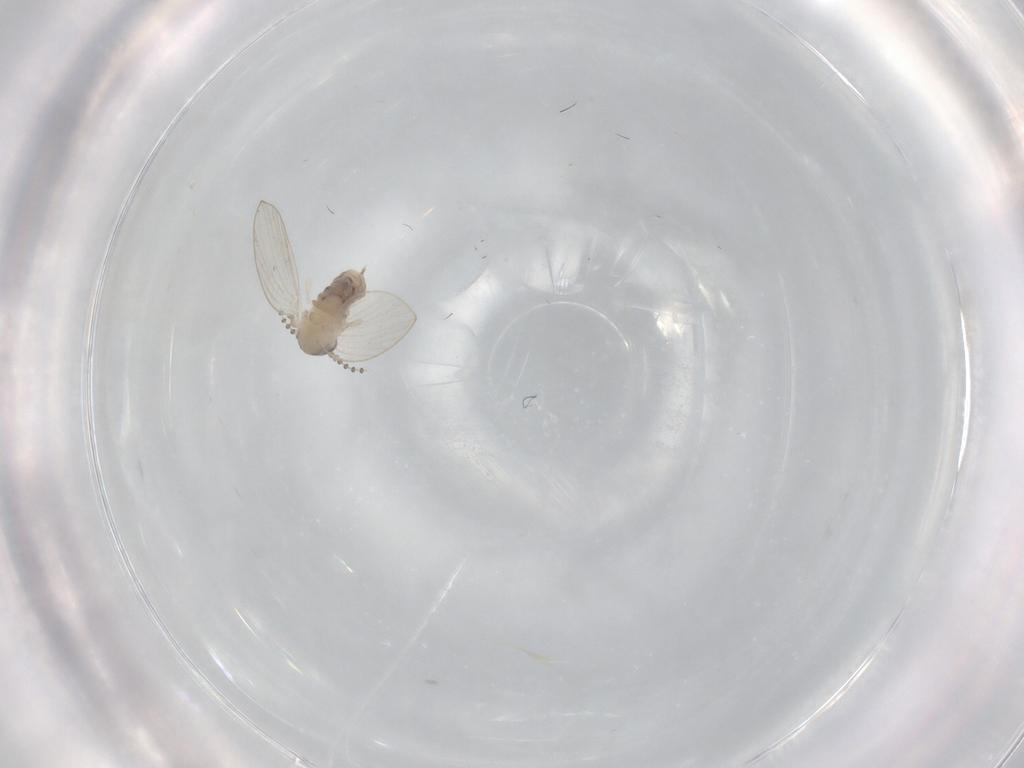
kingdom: Animalia
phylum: Arthropoda
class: Insecta
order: Diptera
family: Psychodidae
